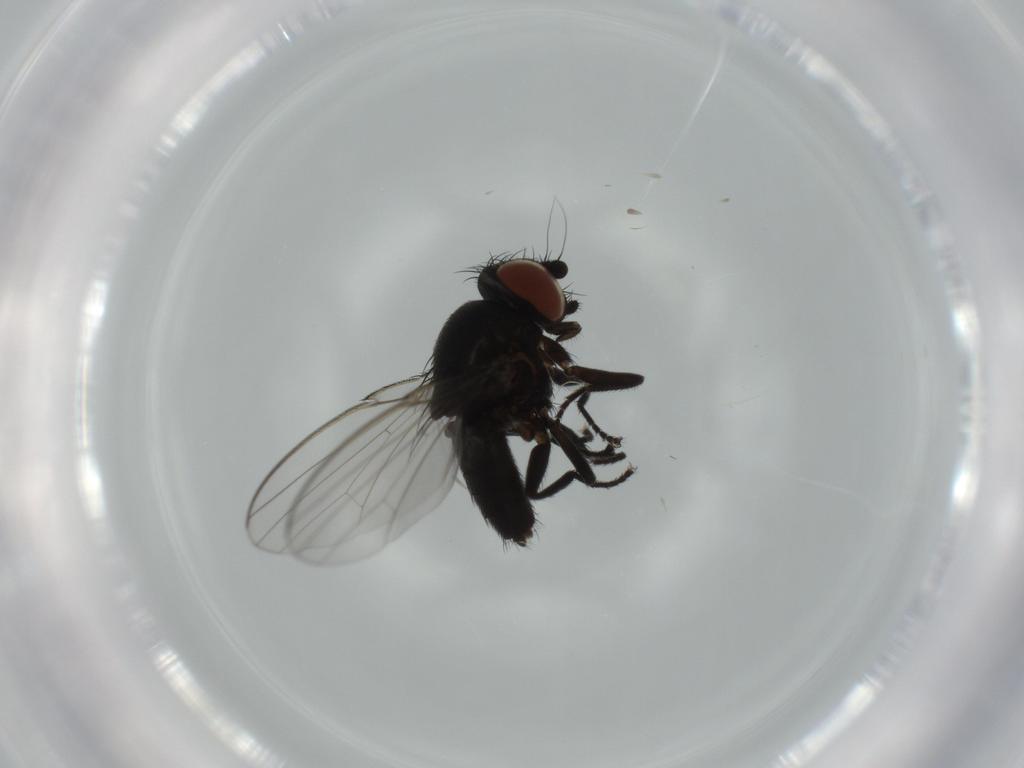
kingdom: Animalia
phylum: Arthropoda
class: Insecta
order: Diptera
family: Milichiidae
